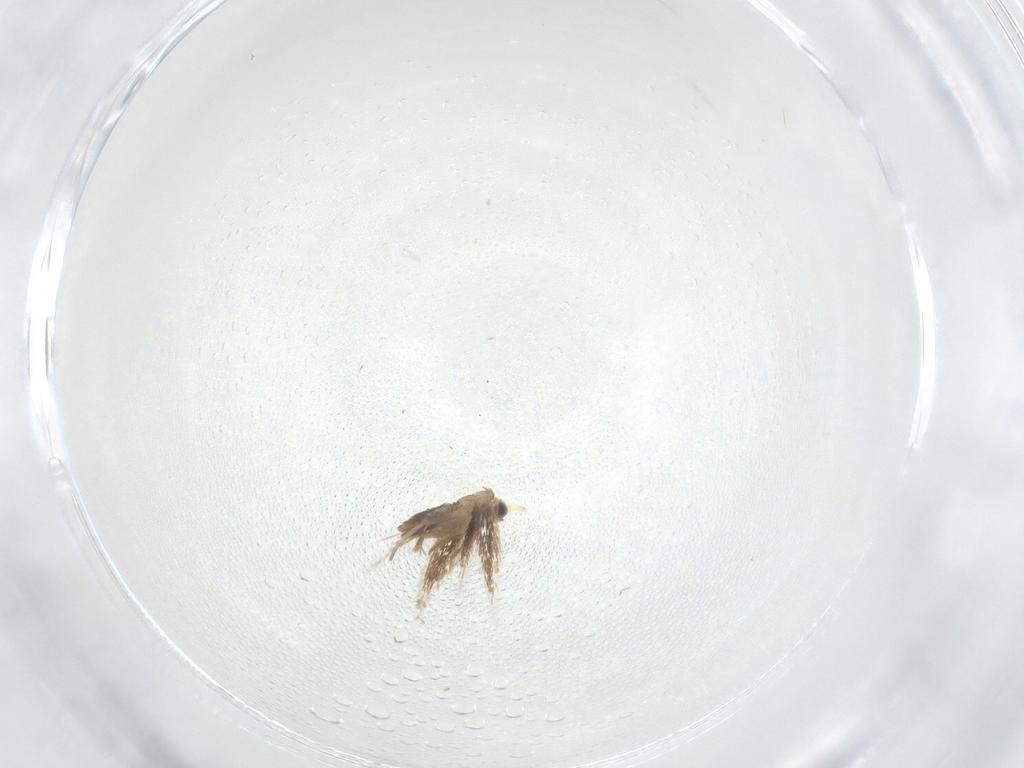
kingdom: Animalia
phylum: Arthropoda
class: Insecta
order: Lepidoptera
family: Nepticulidae
